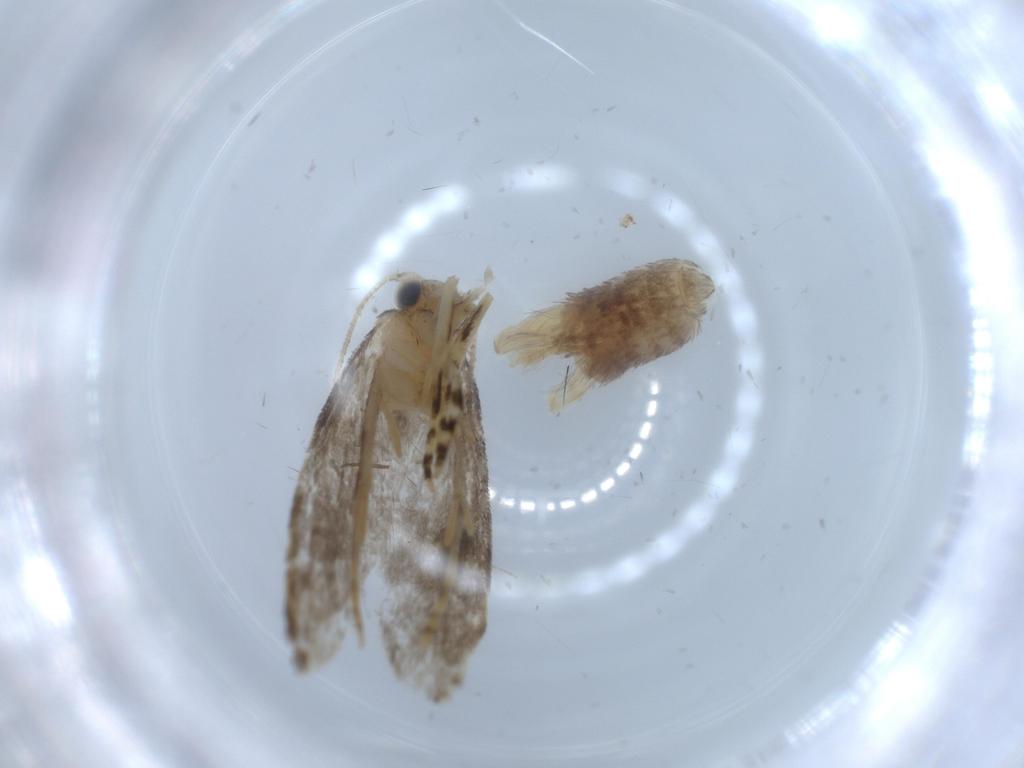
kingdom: Animalia
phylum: Arthropoda
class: Insecta
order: Lepidoptera
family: Tineidae
